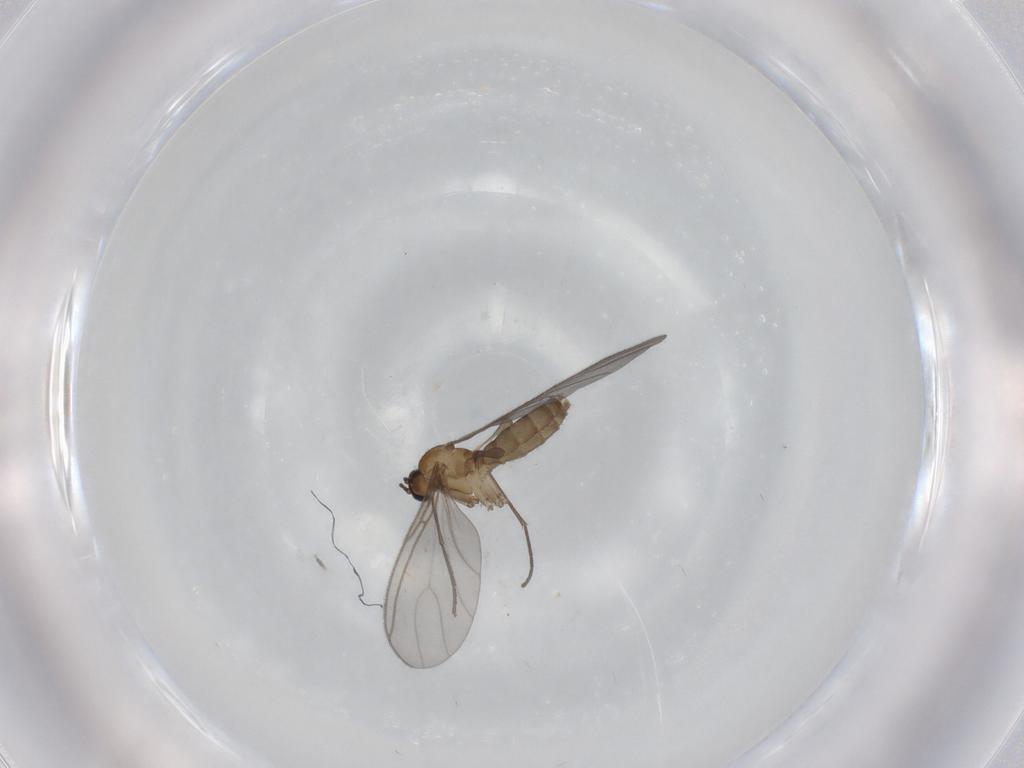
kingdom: Animalia
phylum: Arthropoda
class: Insecta
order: Diptera
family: Sciaridae
